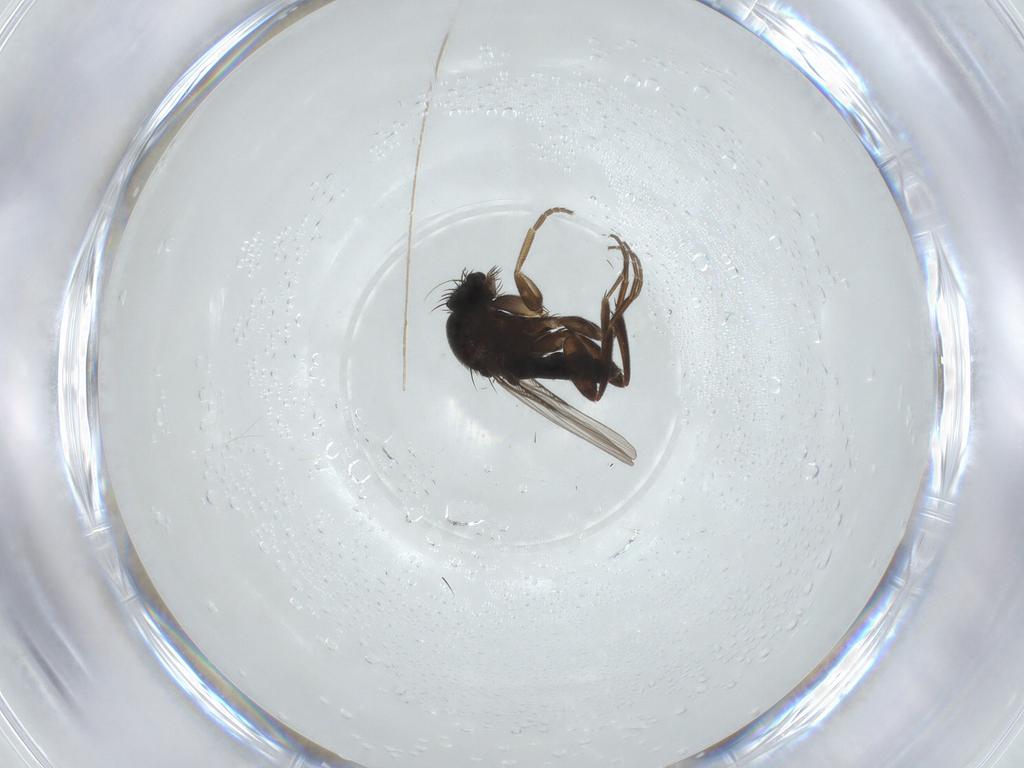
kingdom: Animalia
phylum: Arthropoda
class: Insecta
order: Diptera
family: Phoridae
